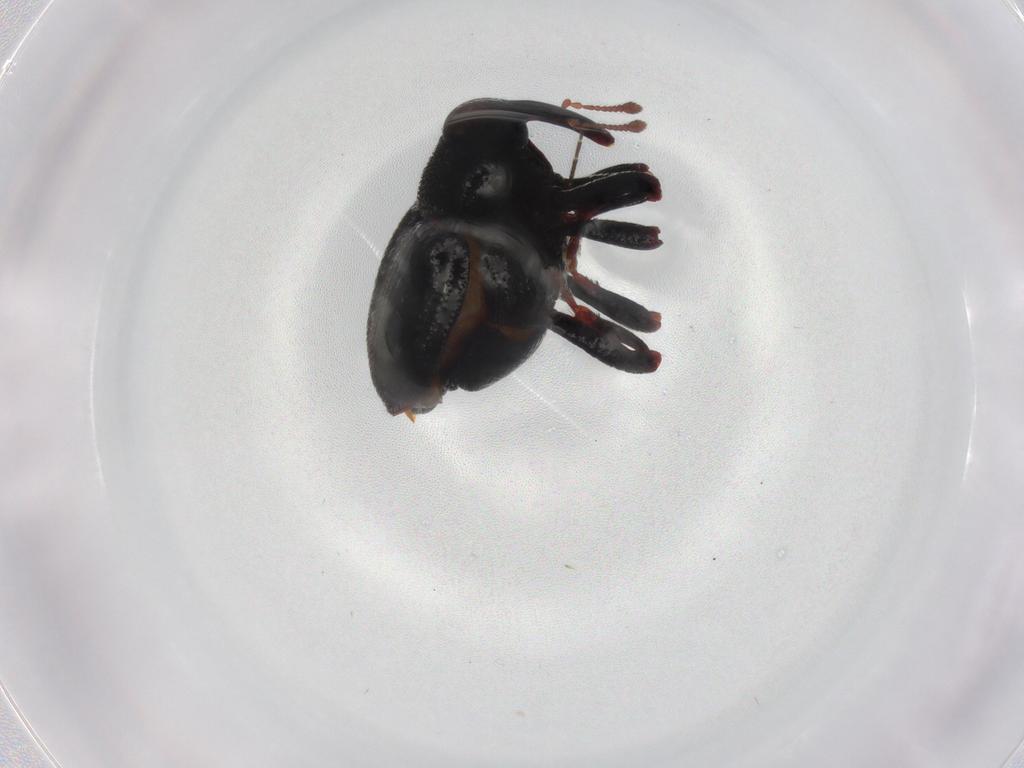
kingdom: Animalia
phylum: Arthropoda
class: Insecta
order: Coleoptera
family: Curculionidae
